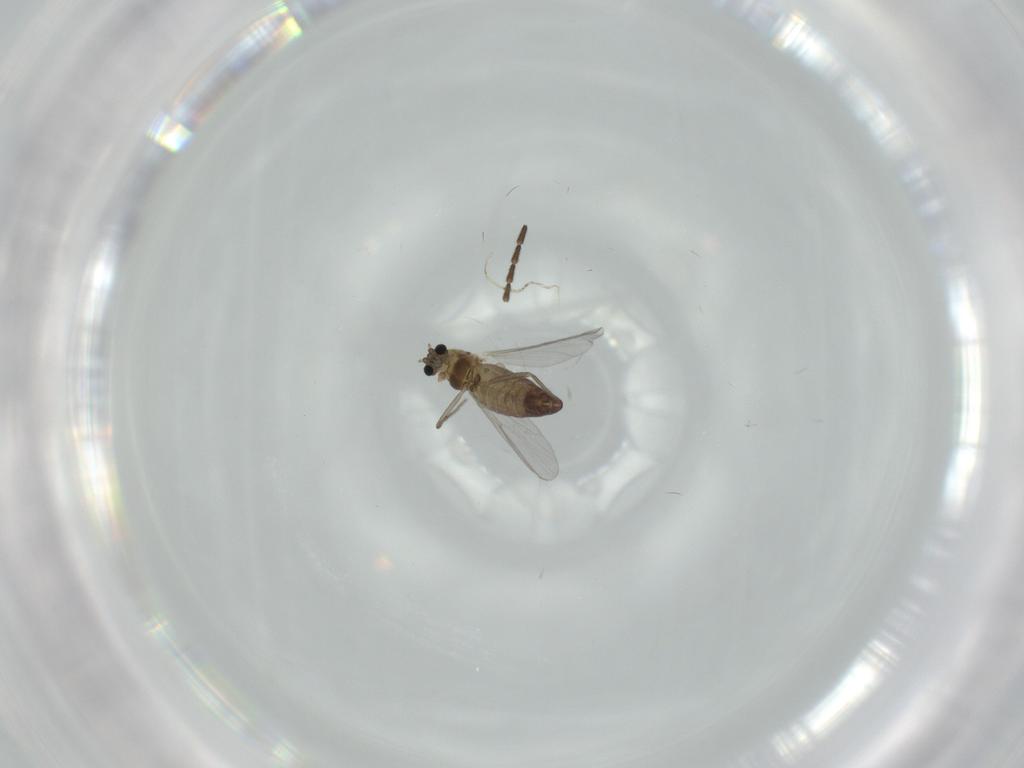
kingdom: Animalia
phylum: Arthropoda
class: Insecta
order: Diptera
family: Chironomidae
